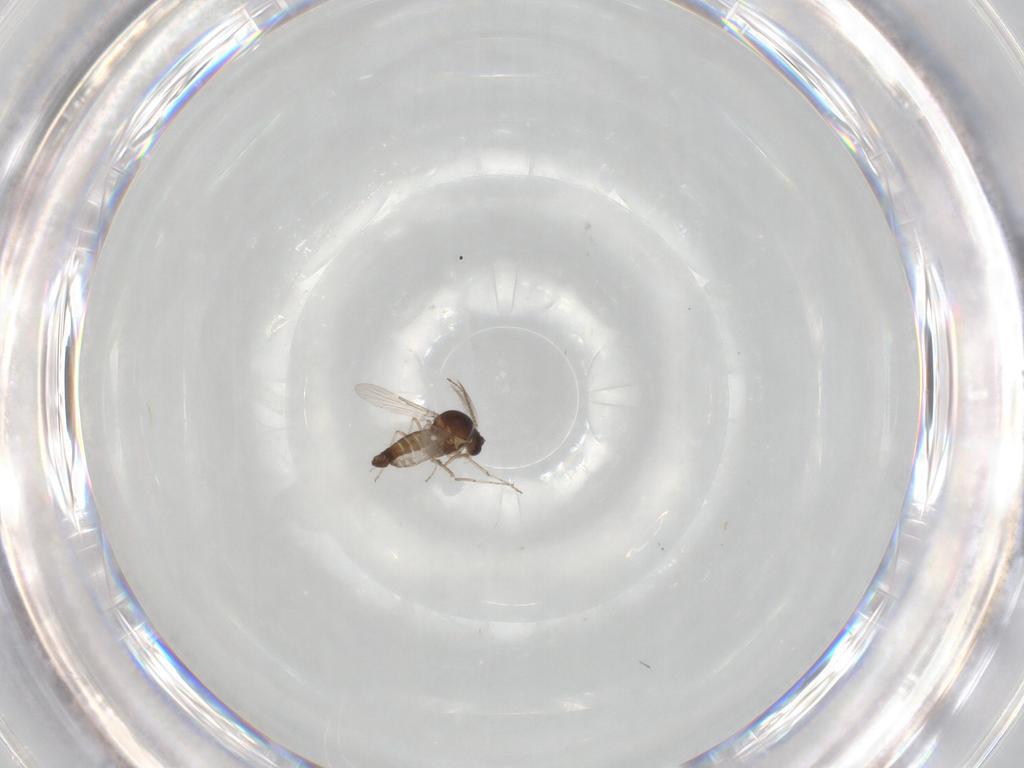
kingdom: Animalia
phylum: Arthropoda
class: Insecta
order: Diptera
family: Ceratopogonidae
